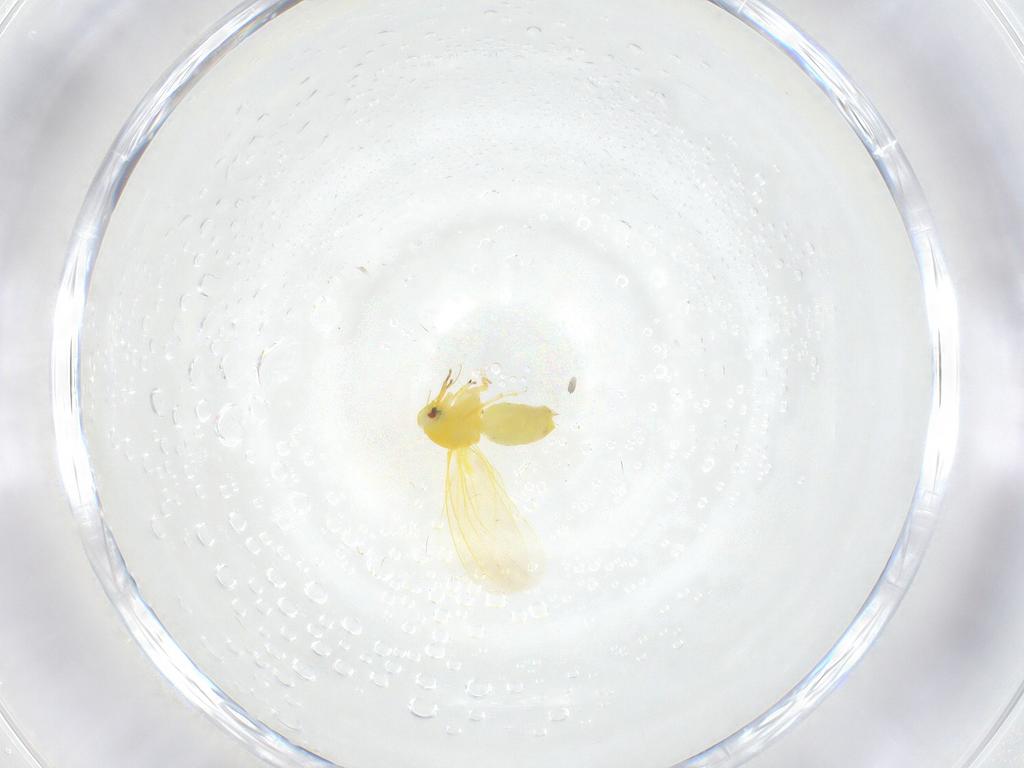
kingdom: Animalia
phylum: Arthropoda
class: Insecta
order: Hemiptera
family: Aleyrodidae
